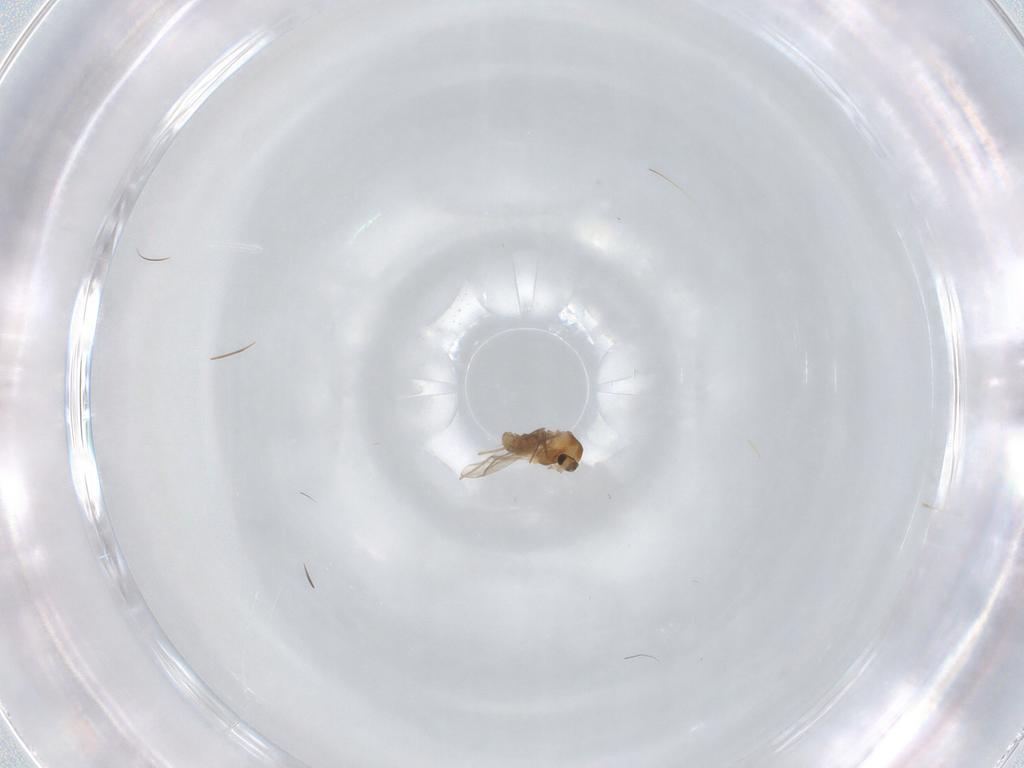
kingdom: Animalia
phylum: Arthropoda
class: Insecta
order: Diptera
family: Chironomidae
